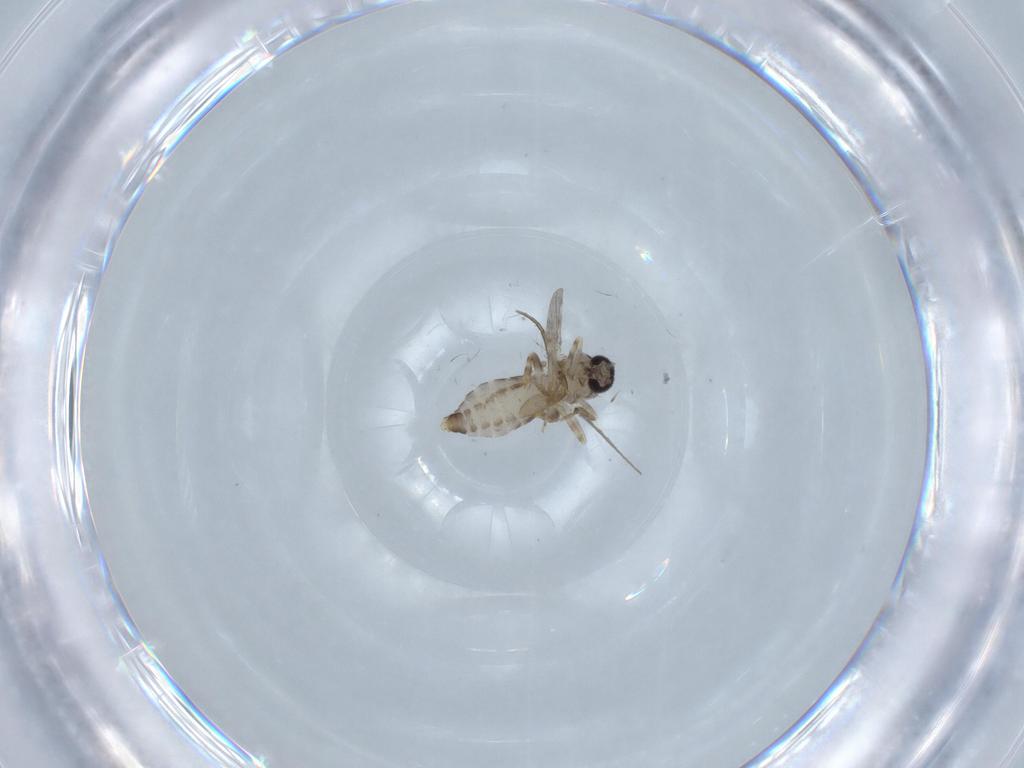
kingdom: Animalia
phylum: Arthropoda
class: Insecta
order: Diptera
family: Ceratopogonidae
